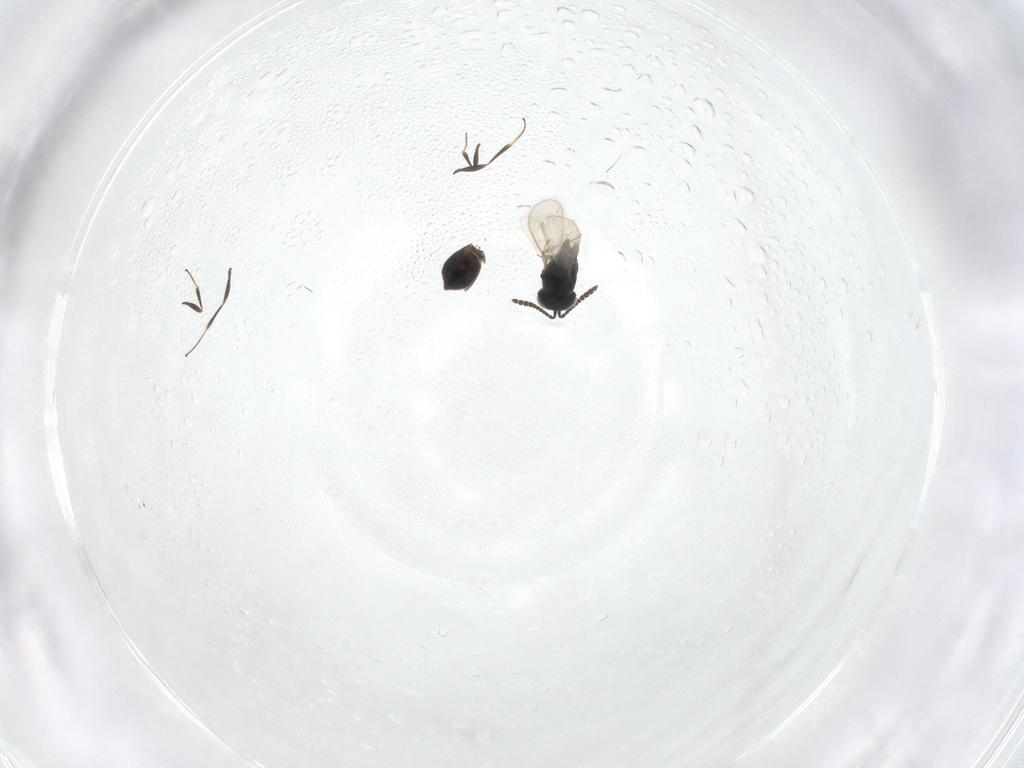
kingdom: Animalia
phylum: Arthropoda
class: Insecta
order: Hymenoptera
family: Scelionidae
